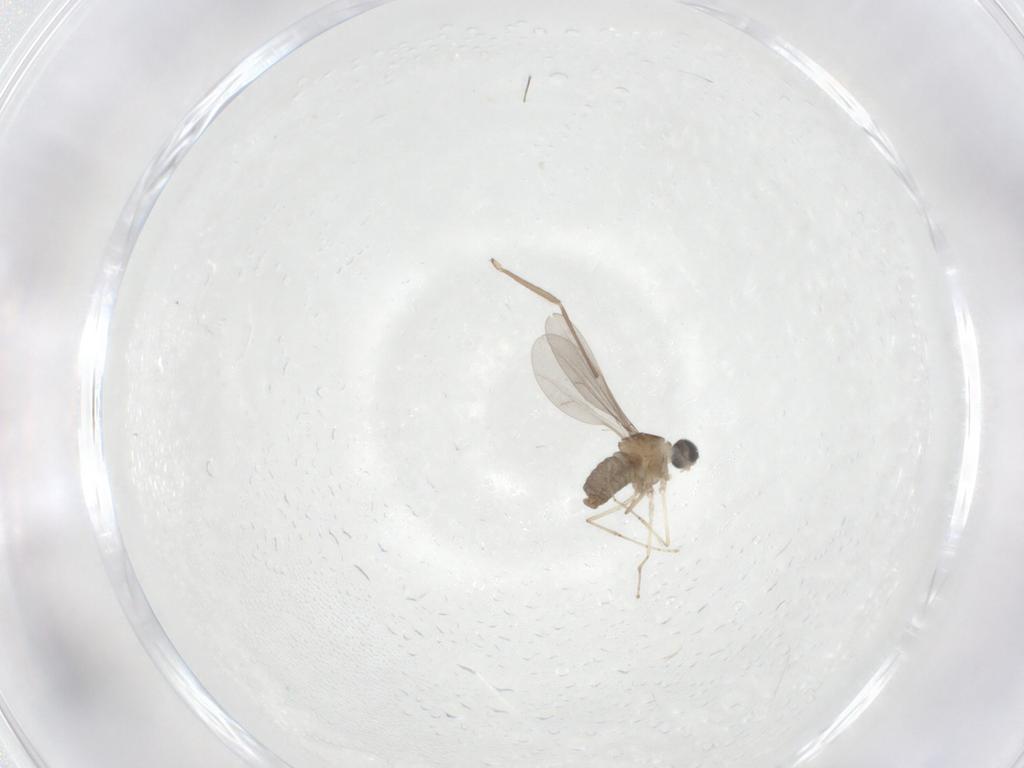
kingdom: Animalia
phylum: Arthropoda
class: Insecta
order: Diptera
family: Cecidomyiidae
